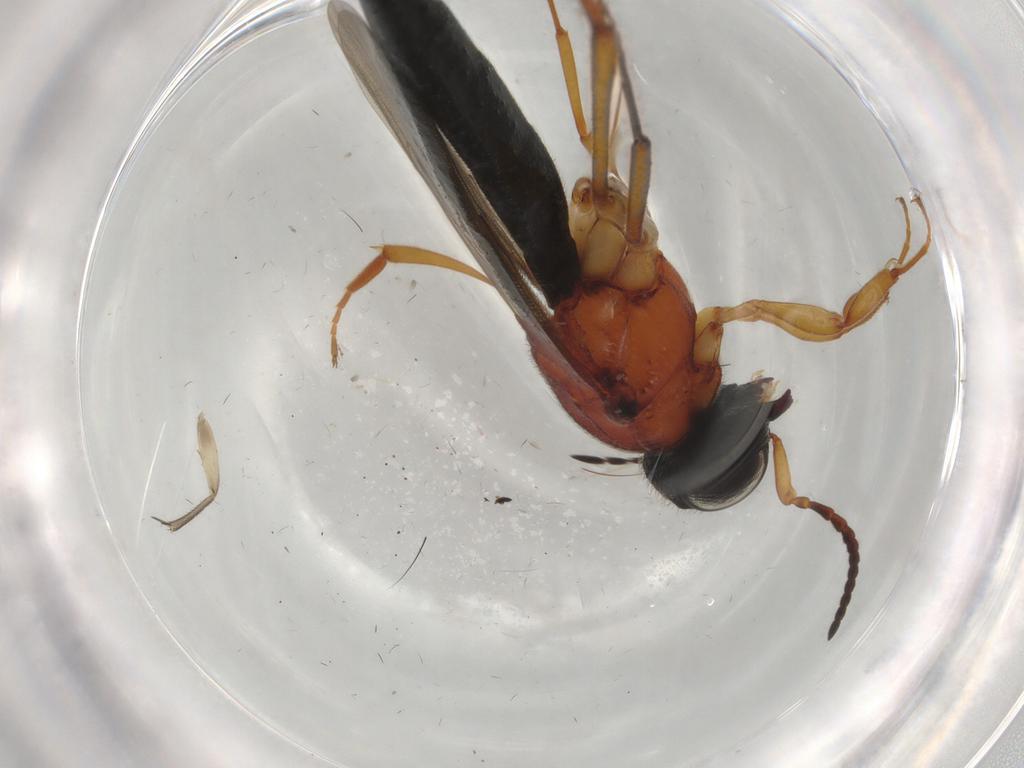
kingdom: Animalia
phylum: Arthropoda
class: Insecta
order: Hymenoptera
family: Scelionidae
